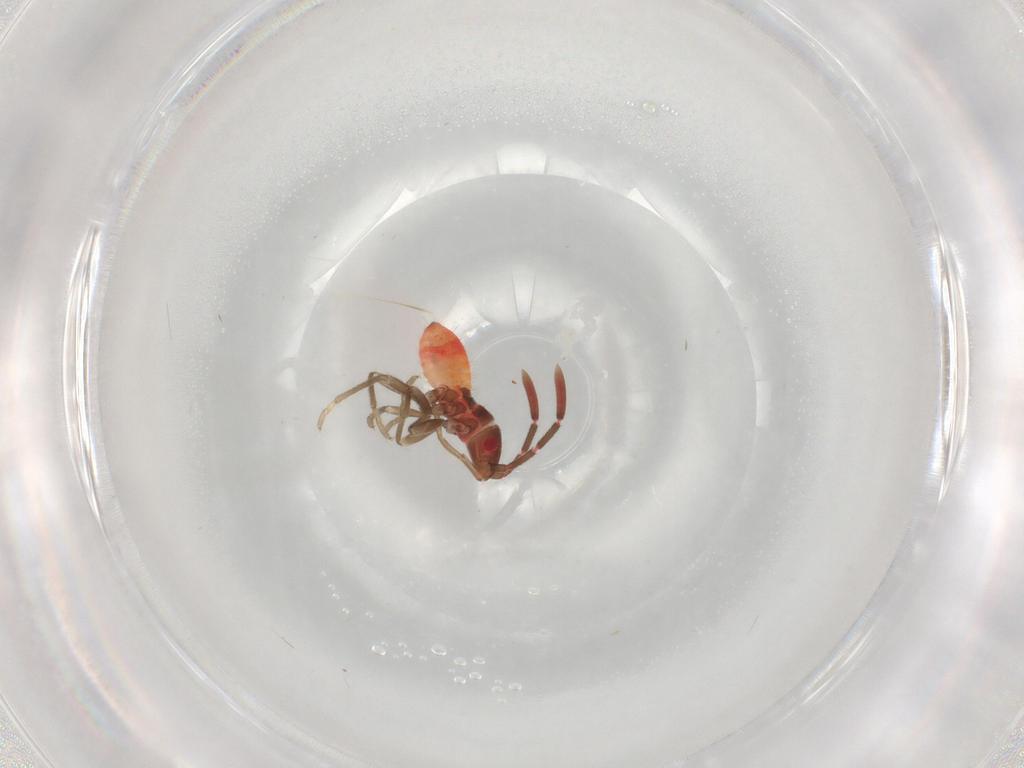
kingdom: Animalia
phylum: Arthropoda
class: Insecta
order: Hemiptera
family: Rhyparochromidae
